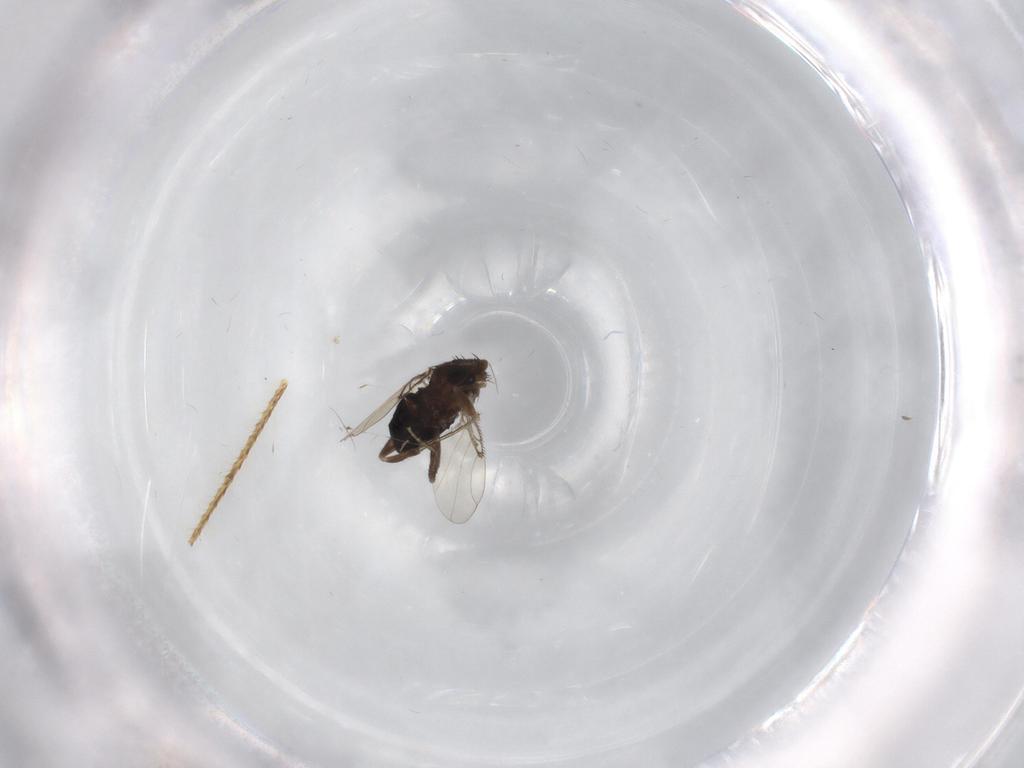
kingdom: Animalia
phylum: Arthropoda
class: Insecta
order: Diptera
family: Phoridae
